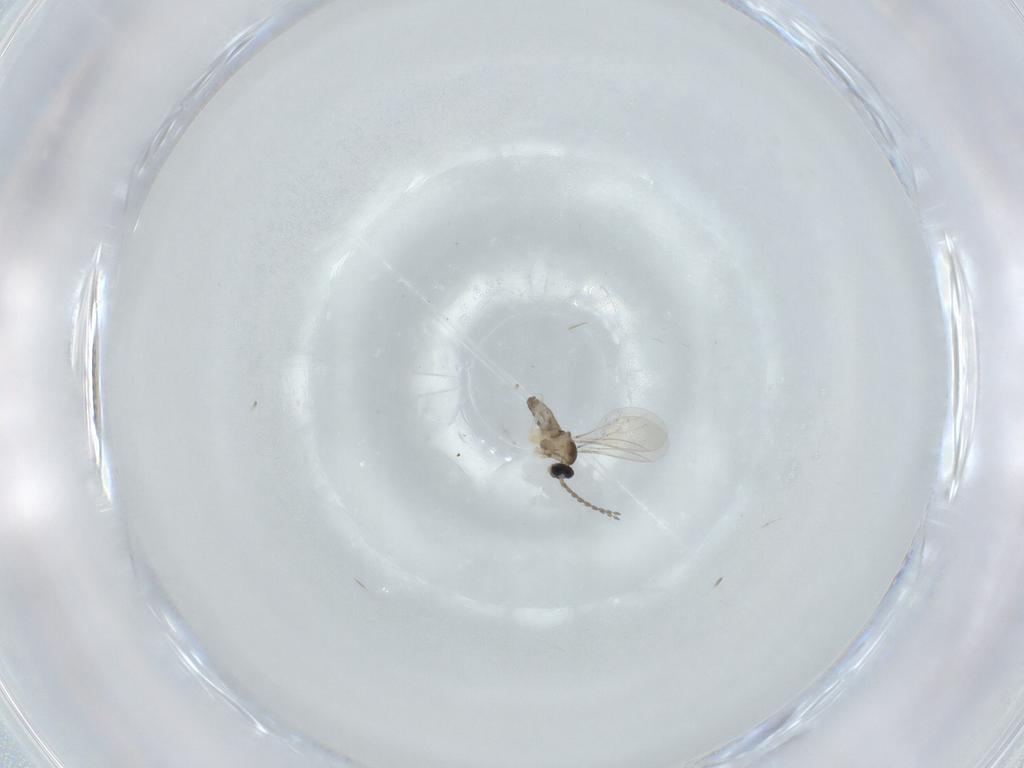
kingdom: Animalia
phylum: Arthropoda
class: Insecta
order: Diptera
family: Cecidomyiidae
